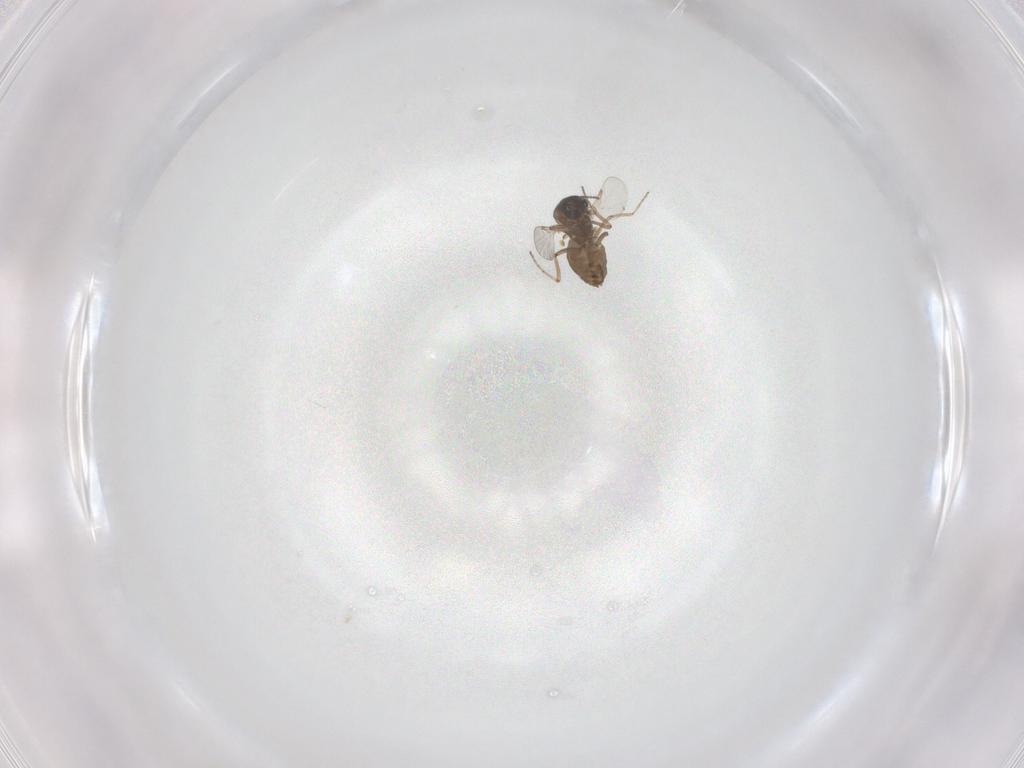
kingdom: Animalia
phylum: Arthropoda
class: Insecta
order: Diptera
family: Ceratopogonidae
